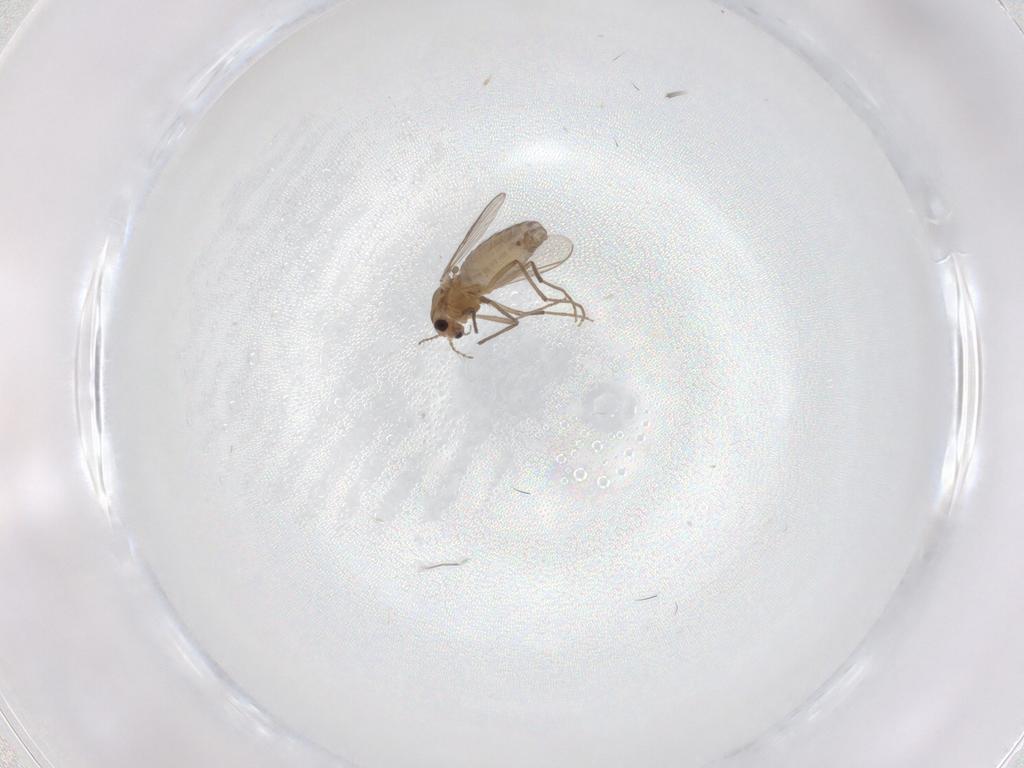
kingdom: Animalia
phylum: Arthropoda
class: Insecta
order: Diptera
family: Chironomidae
